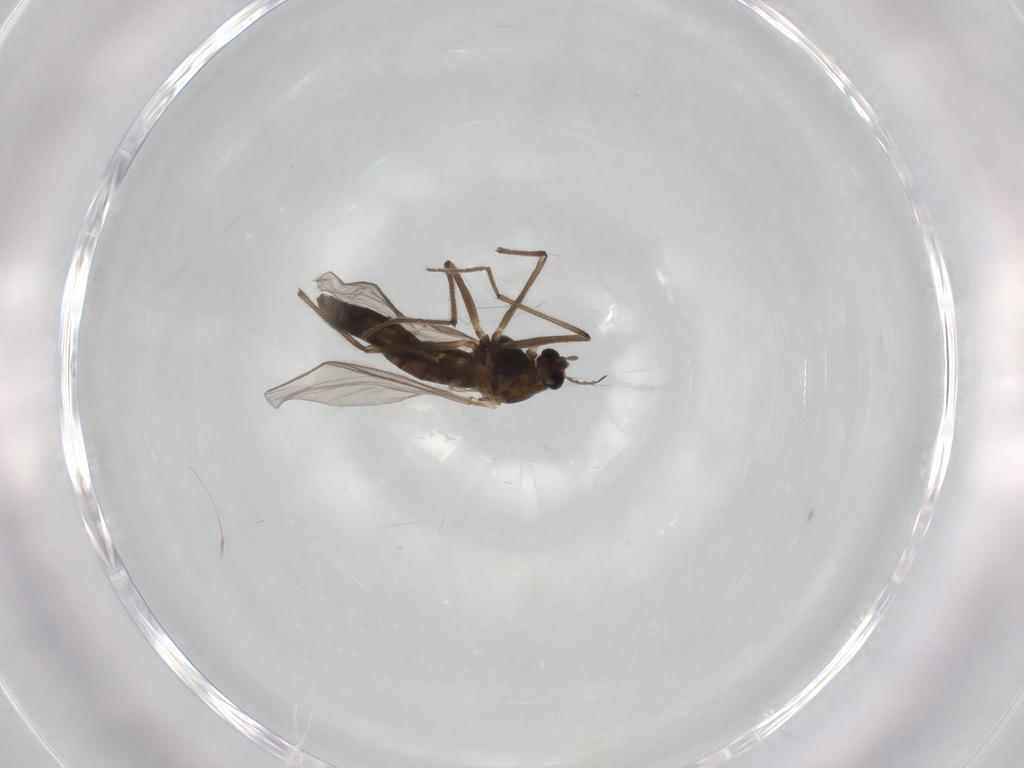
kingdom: Animalia
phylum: Arthropoda
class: Insecta
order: Diptera
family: Chironomidae
